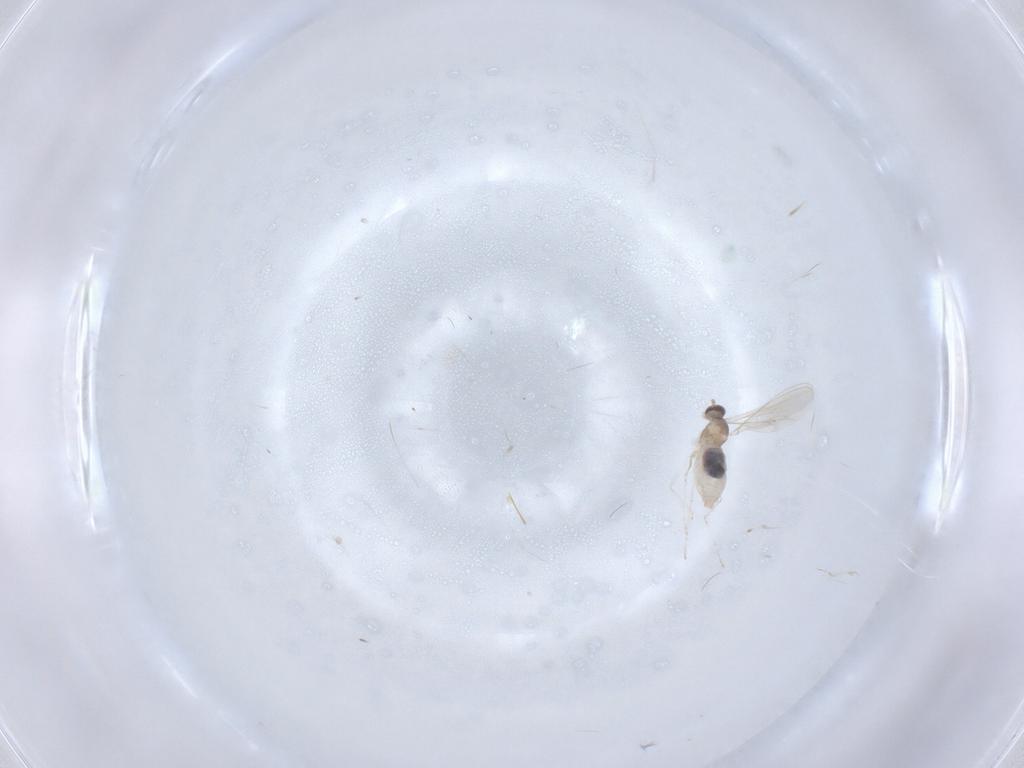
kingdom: Animalia
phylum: Arthropoda
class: Insecta
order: Diptera
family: Cecidomyiidae
